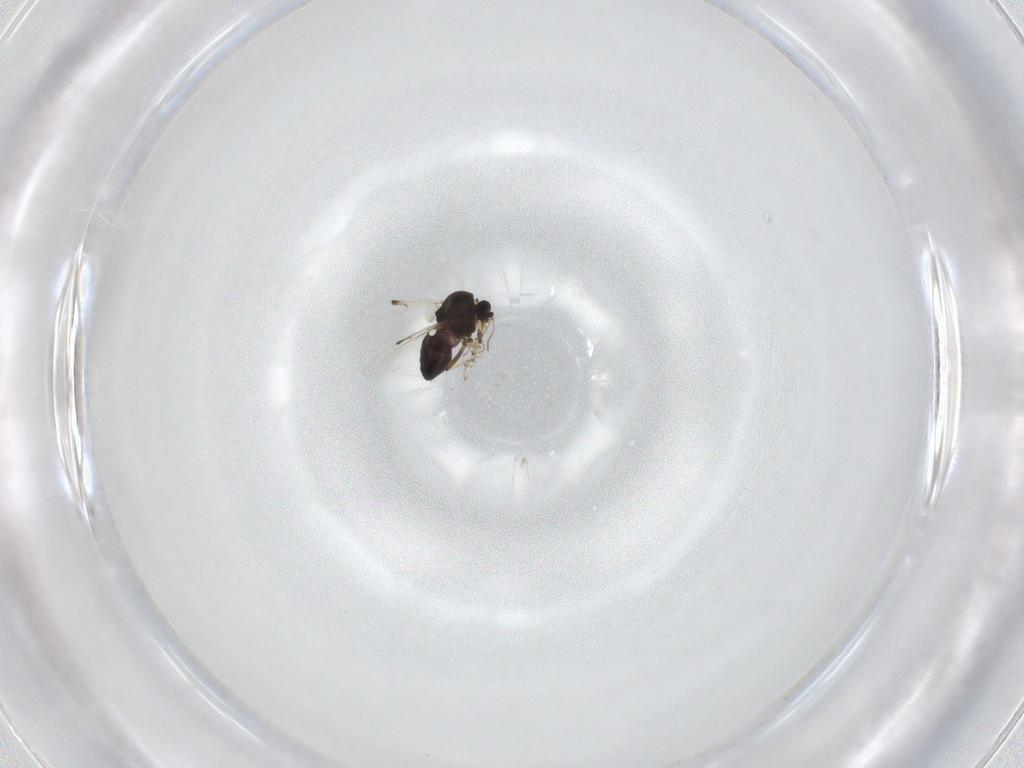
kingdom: Animalia
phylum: Arthropoda
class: Insecta
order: Diptera
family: Ceratopogonidae
